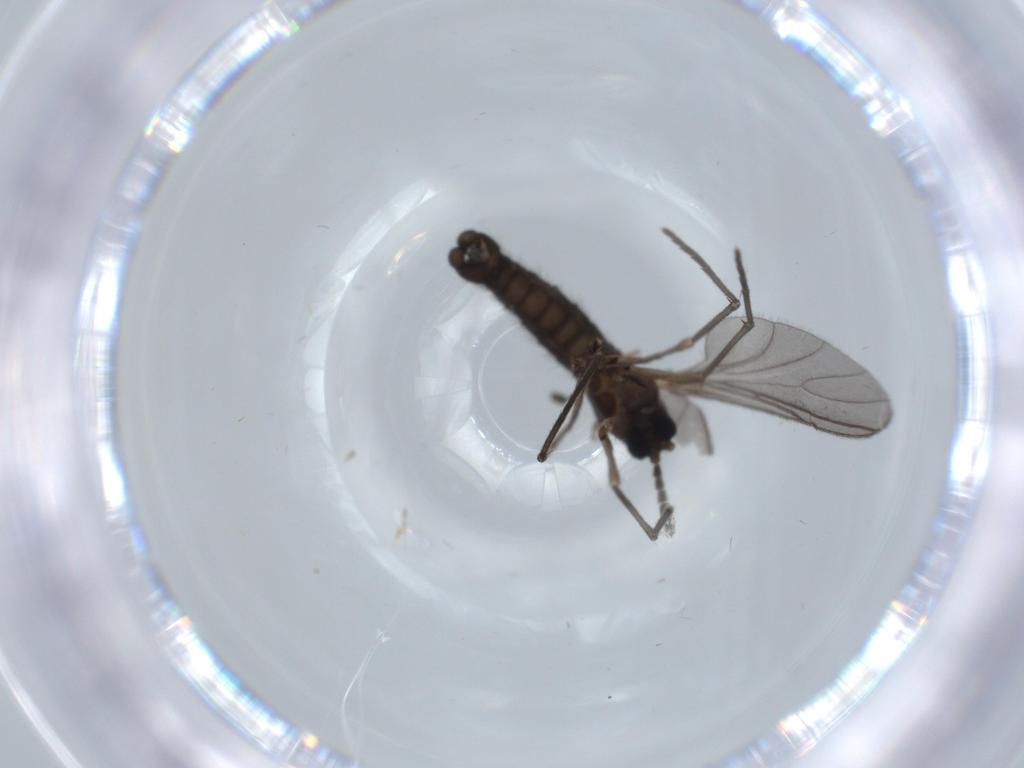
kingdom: Animalia
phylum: Arthropoda
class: Insecta
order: Diptera
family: Sciaridae
